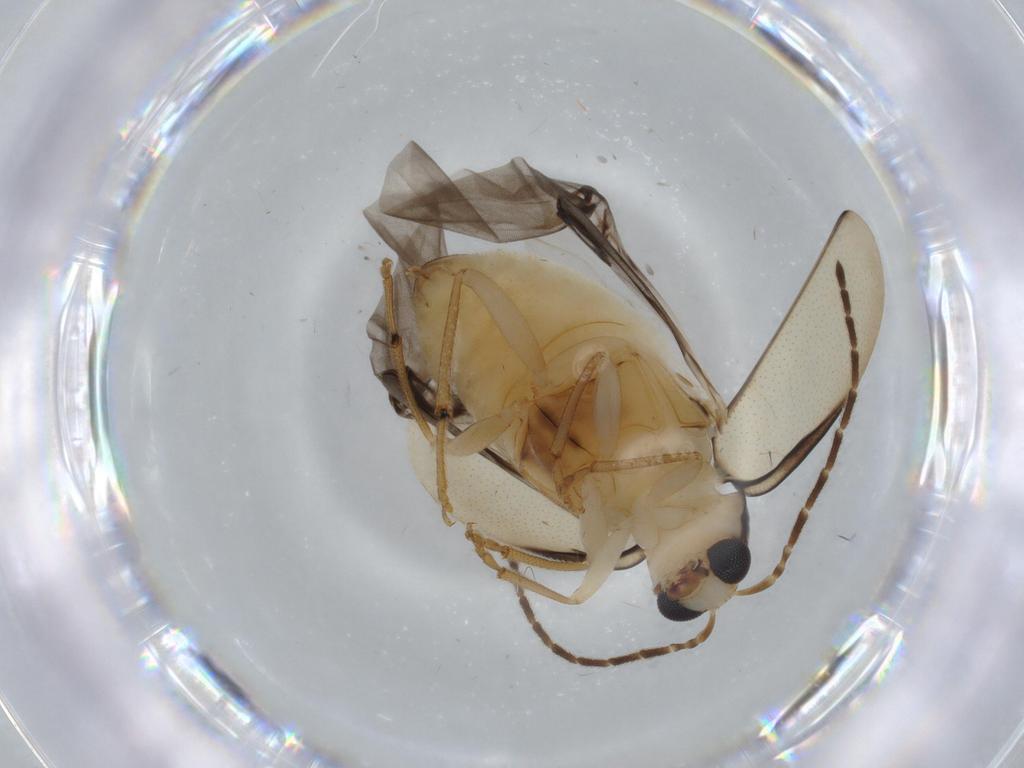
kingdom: Animalia
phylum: Arthropoda
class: Insecta
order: Coleoptera
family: Chrysomelidae
